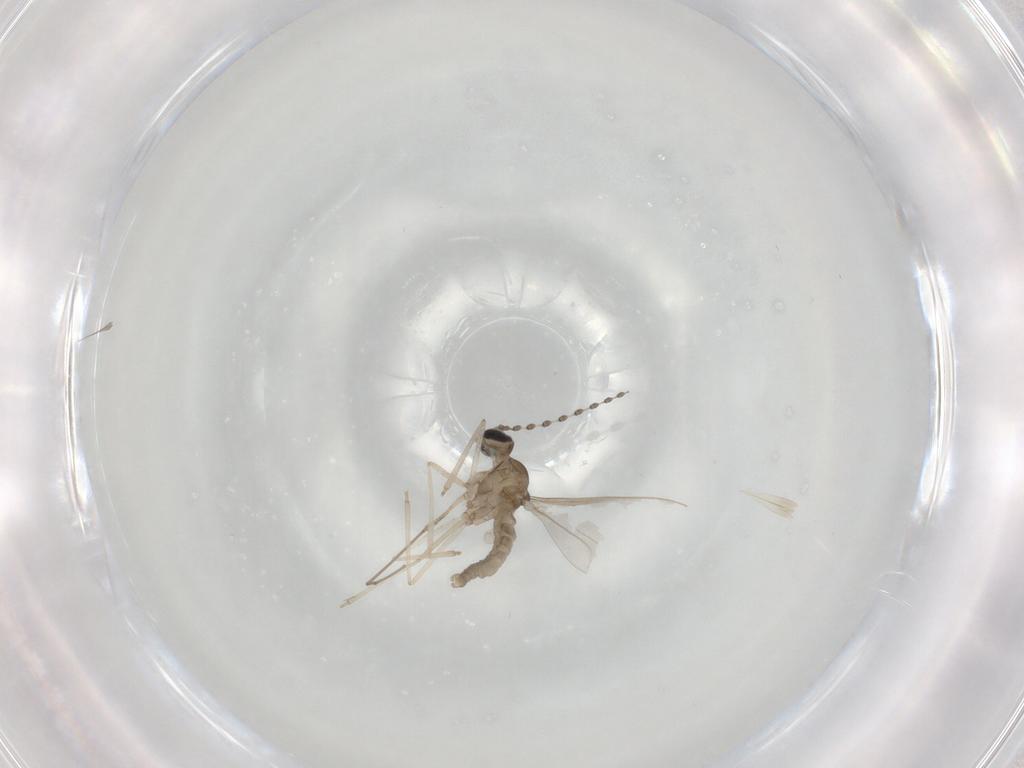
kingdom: Animalia
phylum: Arthropoda
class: Insecta
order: Diptera
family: Cecidomyiidae
